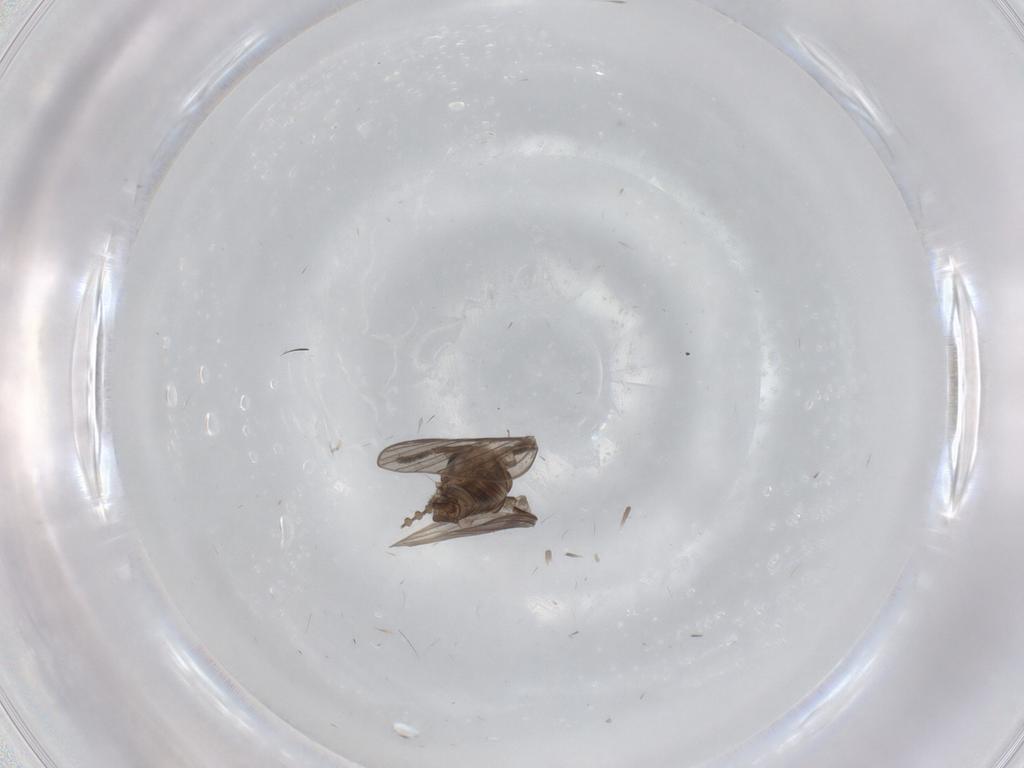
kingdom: Animalia
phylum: Arthropoda
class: Insecta
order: Diptera
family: Psychodidae
